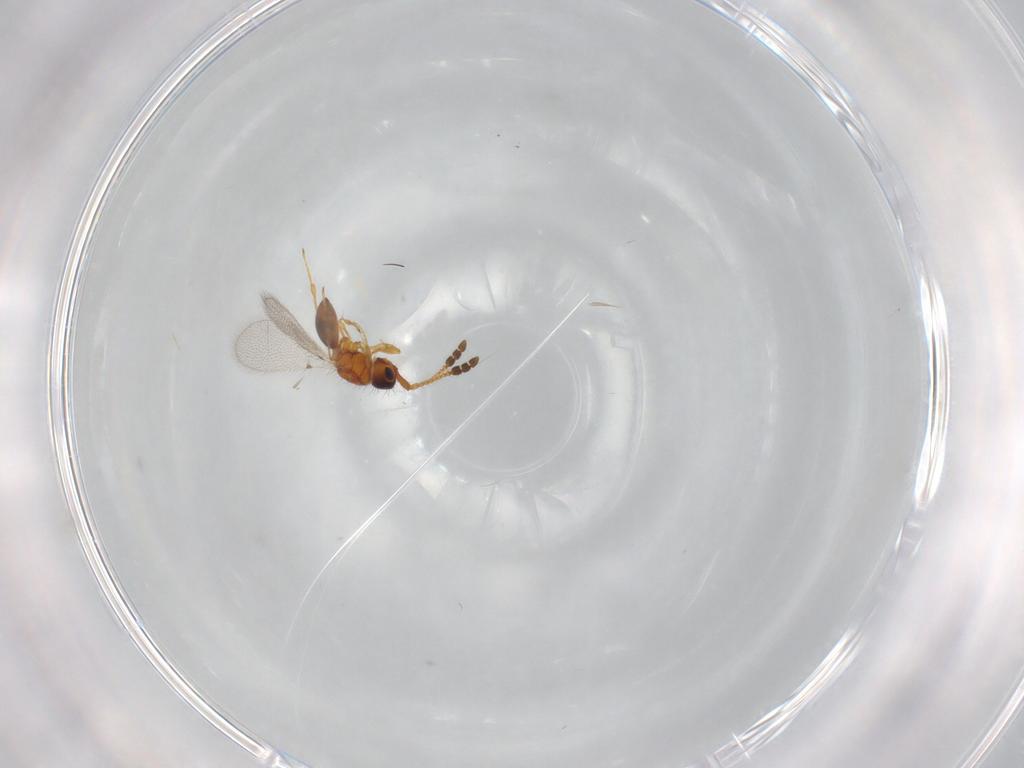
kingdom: Animalia
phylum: Arthropoda
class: Insecta
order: Hymenoptera
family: Diapriidae
